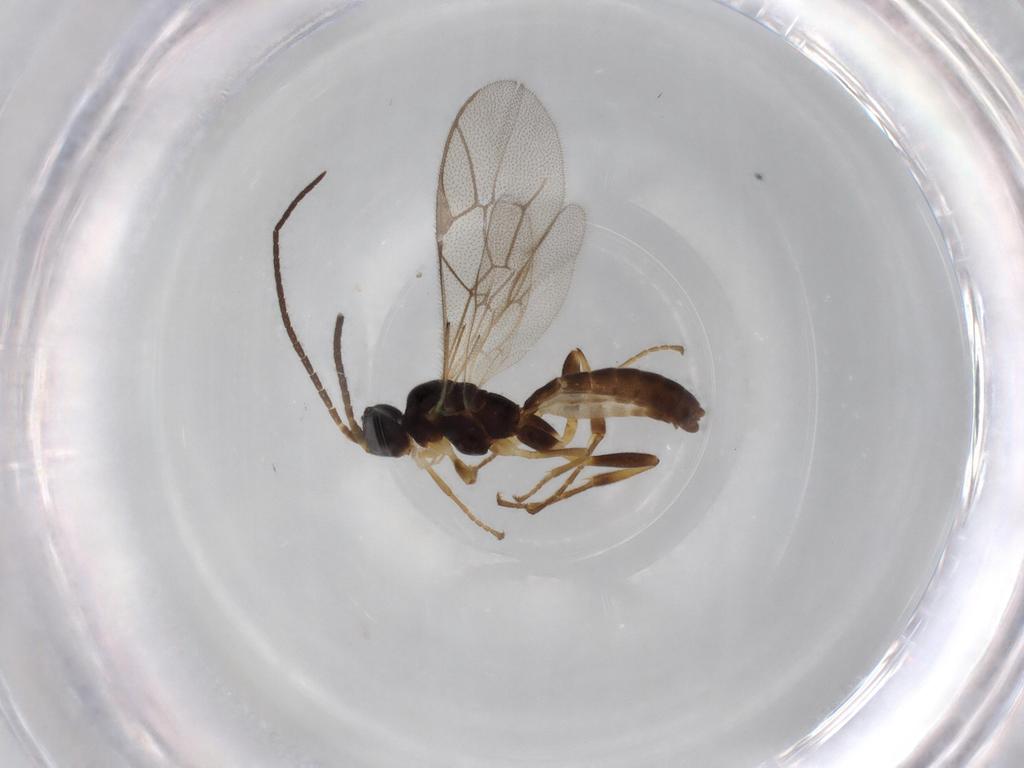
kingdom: Animalia
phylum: Arthropoda
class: Insecta
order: Hymenoptera
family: Ichneumonidae
